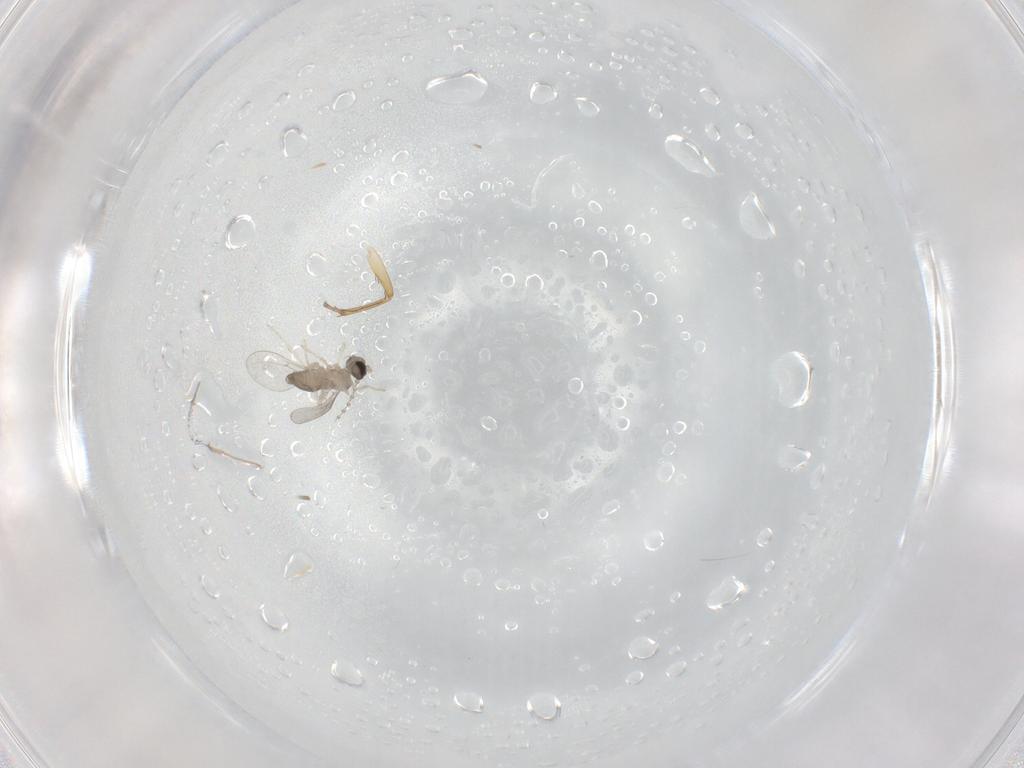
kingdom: Animalia
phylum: Arthropoda
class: Insecta
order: Diptera
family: Cecidomyiidae
